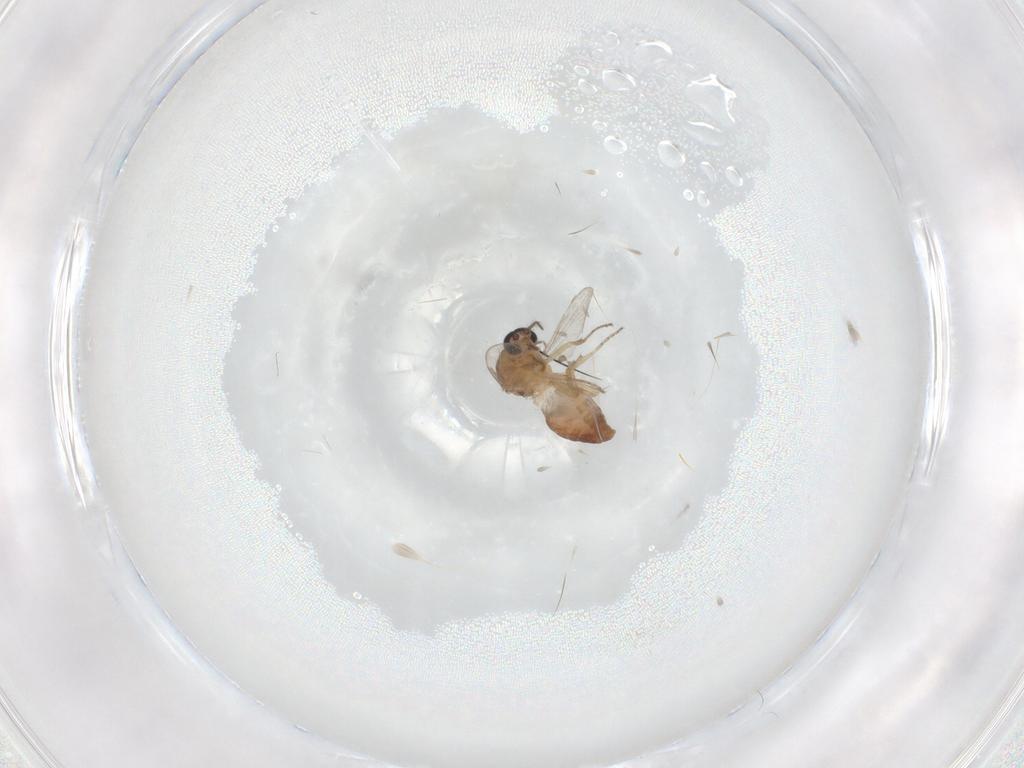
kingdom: Animalia
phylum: Arthropoda
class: Insecta
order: Diptera
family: Ceratopogonidae
